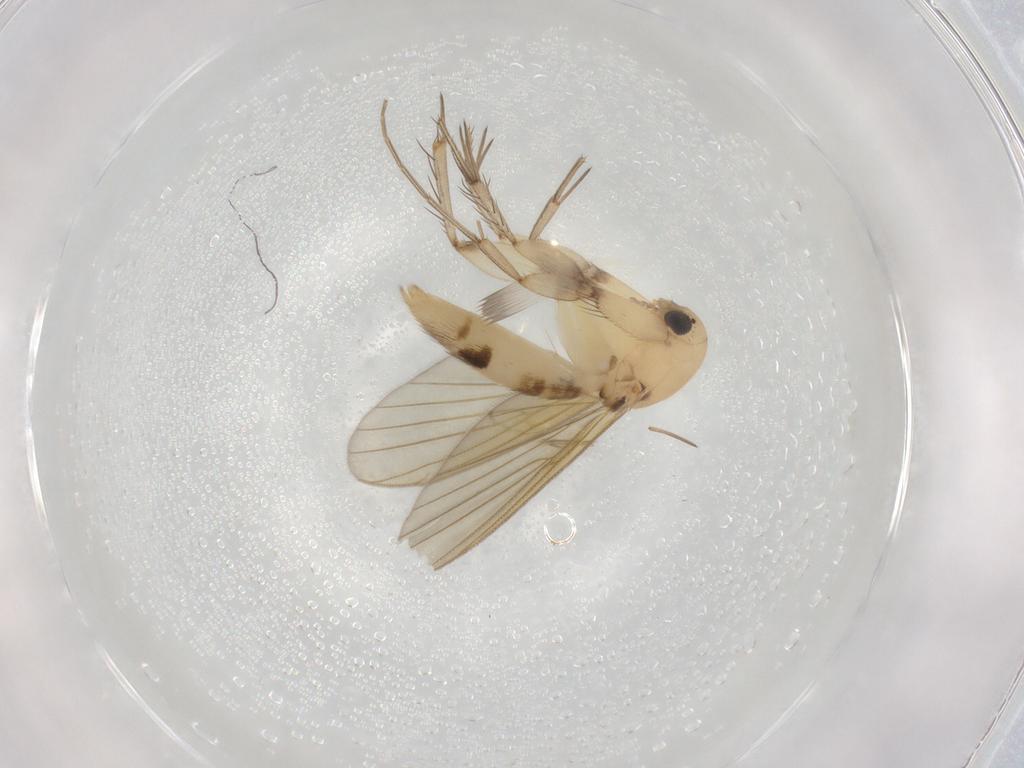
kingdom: Animalia
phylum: Arthropoda
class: Insecta
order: Diptera
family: Mycetophilidae
